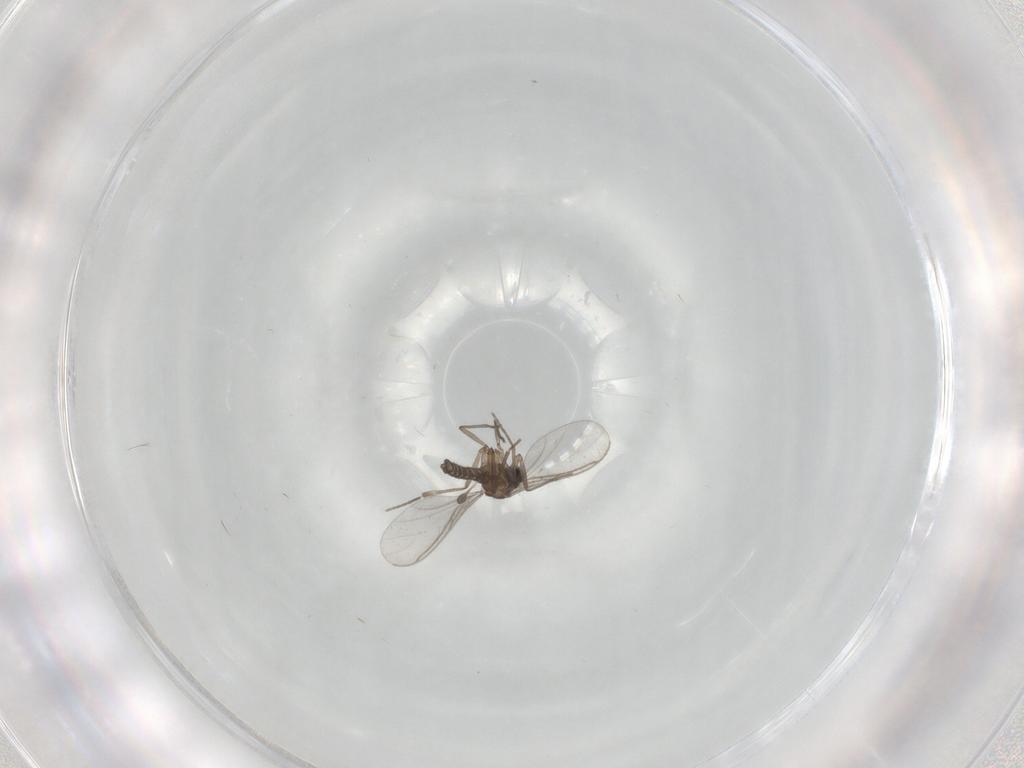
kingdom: Animalia
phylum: Arthropoda
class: Insecta
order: Diptera
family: Sciaridae
